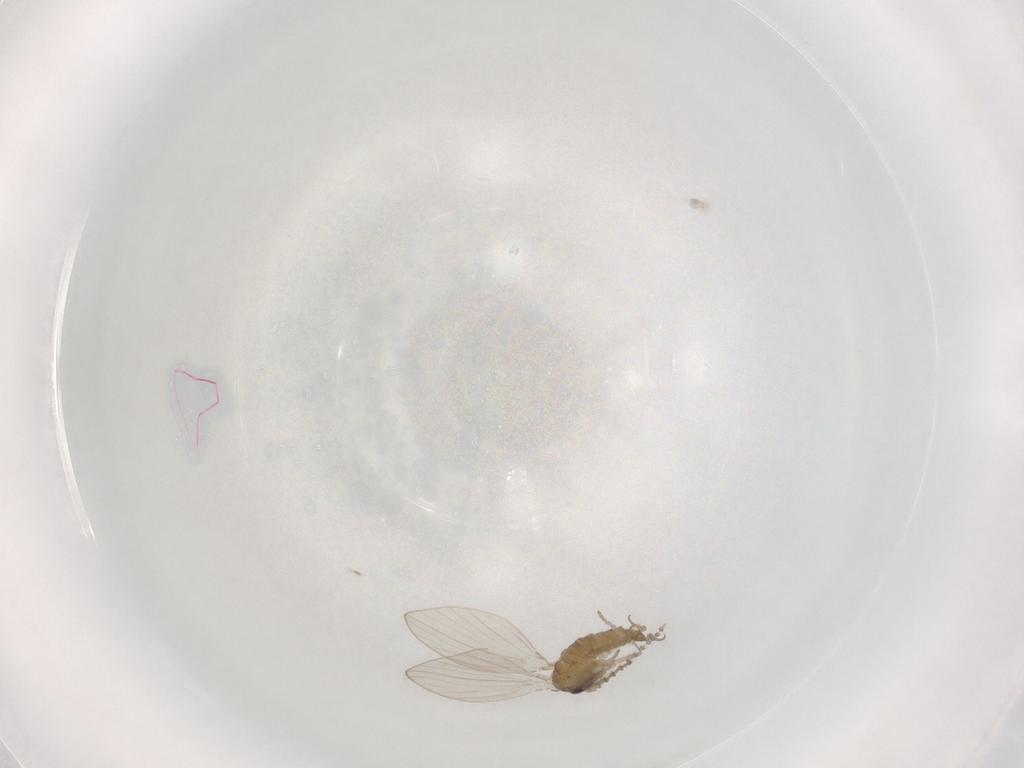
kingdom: Animalia
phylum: Arthropoda
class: Insecta
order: Diptera
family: Psychodidae
